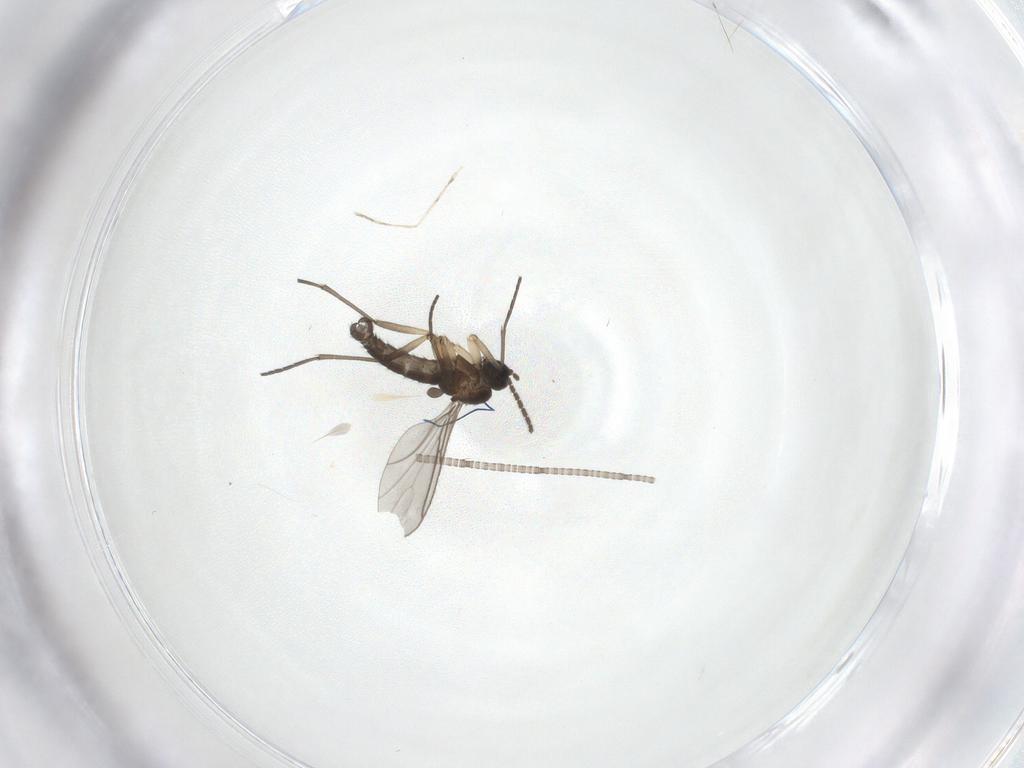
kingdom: Animalia
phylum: Arthropoda
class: Insecta
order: Diptera
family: Sciaridae
